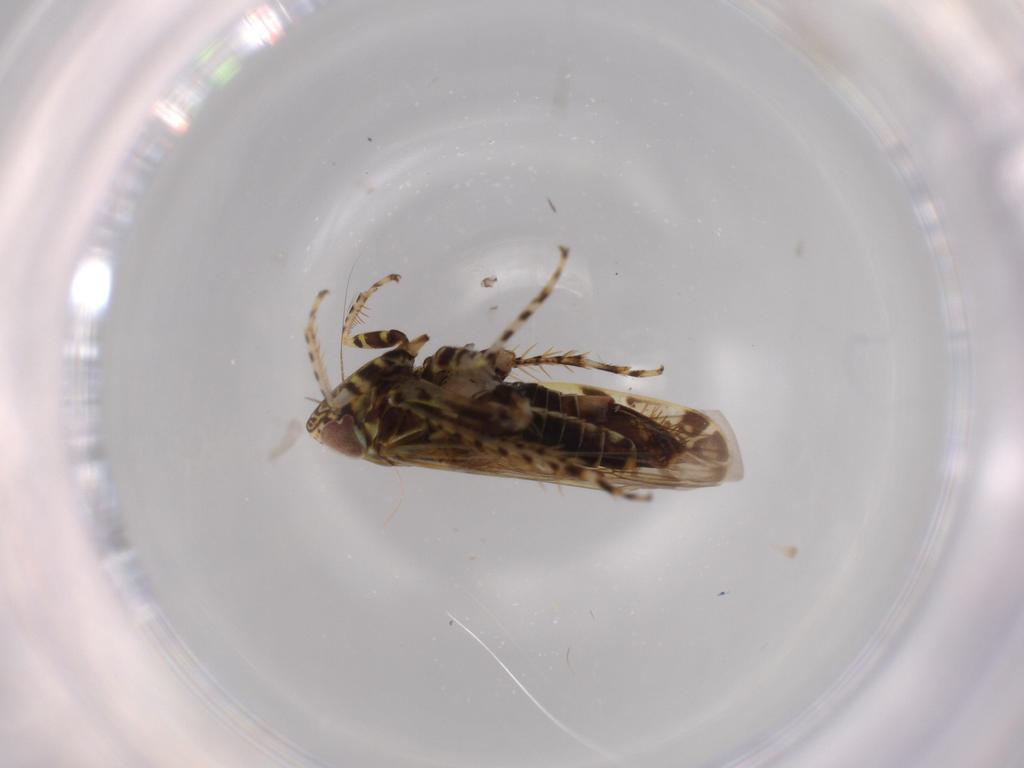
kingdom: Animalia
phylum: Arthropoda
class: Insecta
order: Hemiptera
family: Cicadellidae
